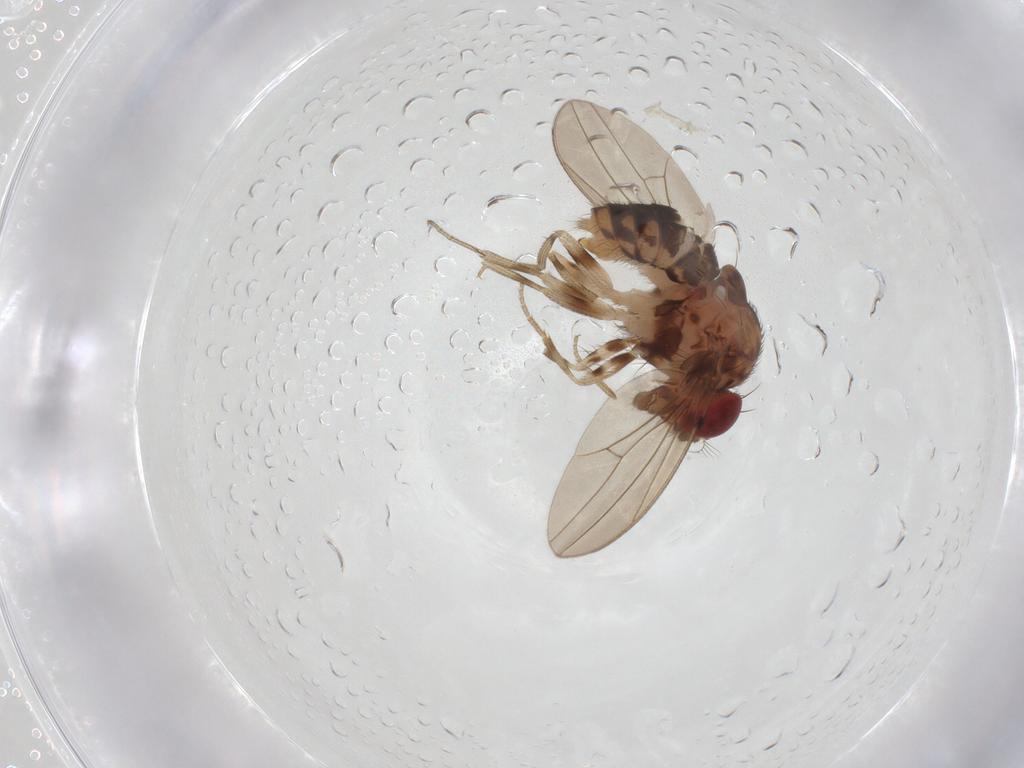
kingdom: Animalia
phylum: Arthropoda
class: Insecta
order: Diptera
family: Drosophilidae
